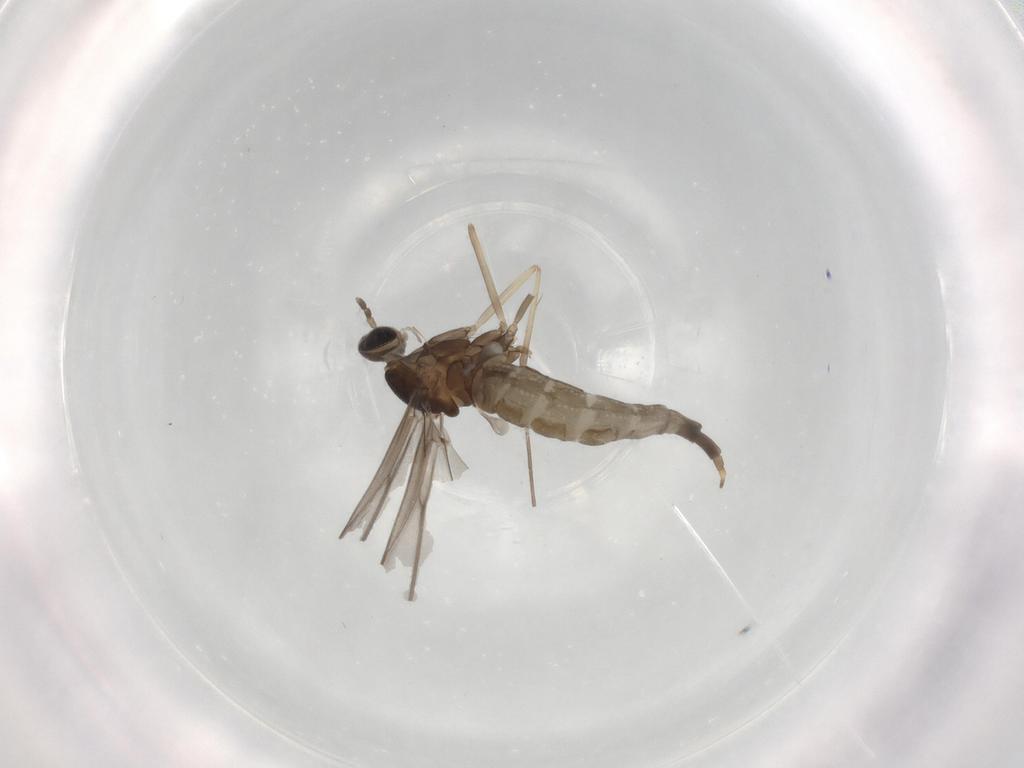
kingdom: Animalia
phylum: Arthropoda
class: Insecta
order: Diptera
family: Cecidomyiidae
